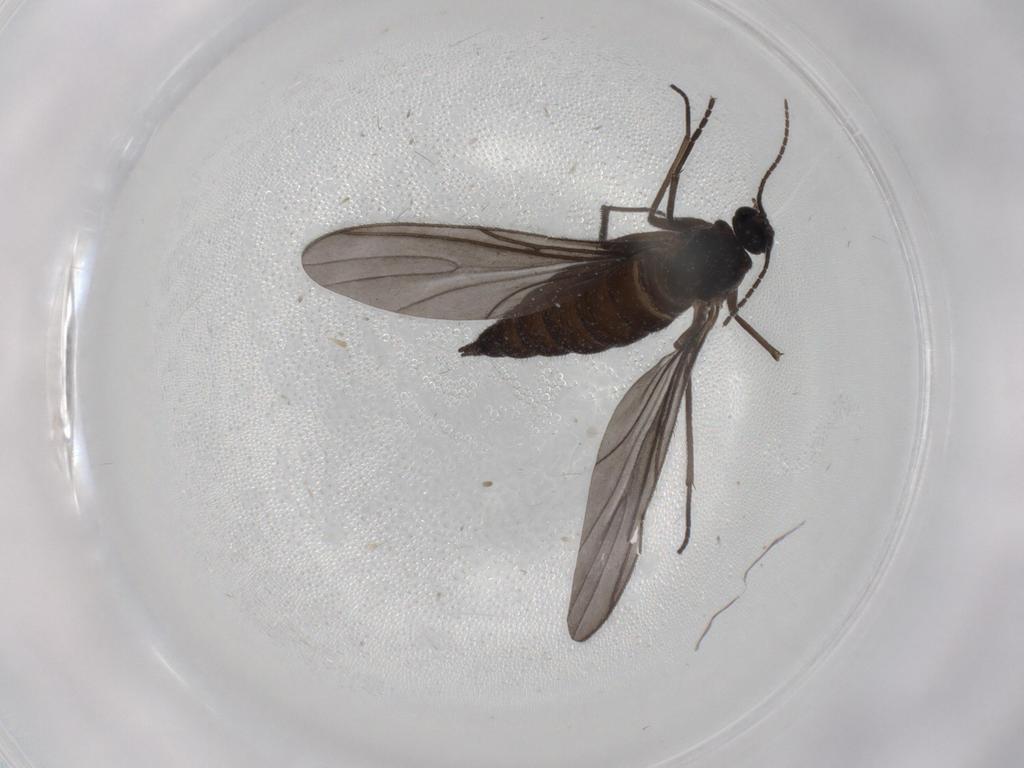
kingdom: Animalia
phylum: Arthropoda
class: Insecta
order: Diptera
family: Sciaridae
